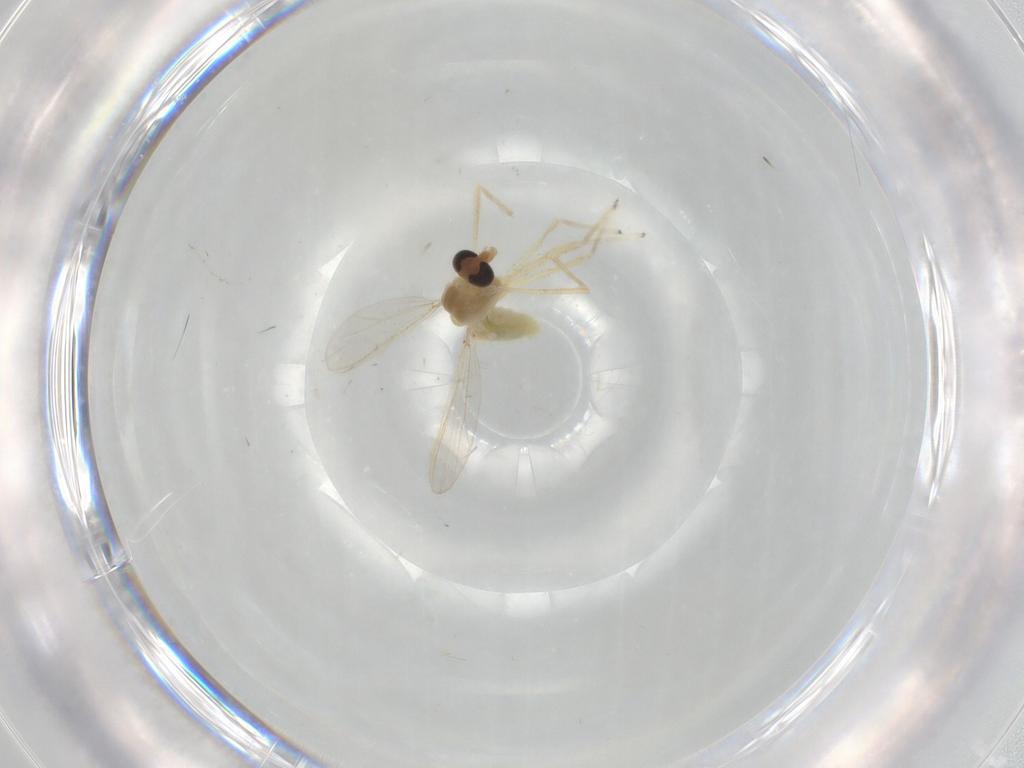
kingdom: Animalia
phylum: Arthropoda
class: Insecta
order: Diptera
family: Chironomidae
